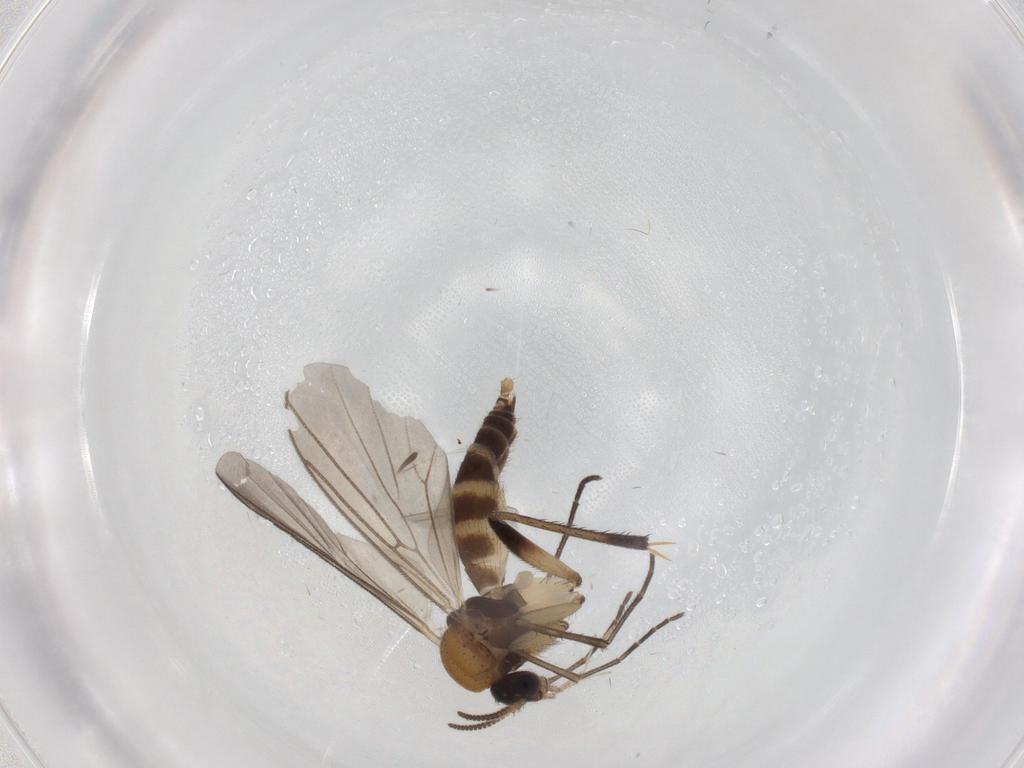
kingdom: Animalia
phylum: Arthropoda
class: Insecta
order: Diptera
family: Cecidomyiidae
